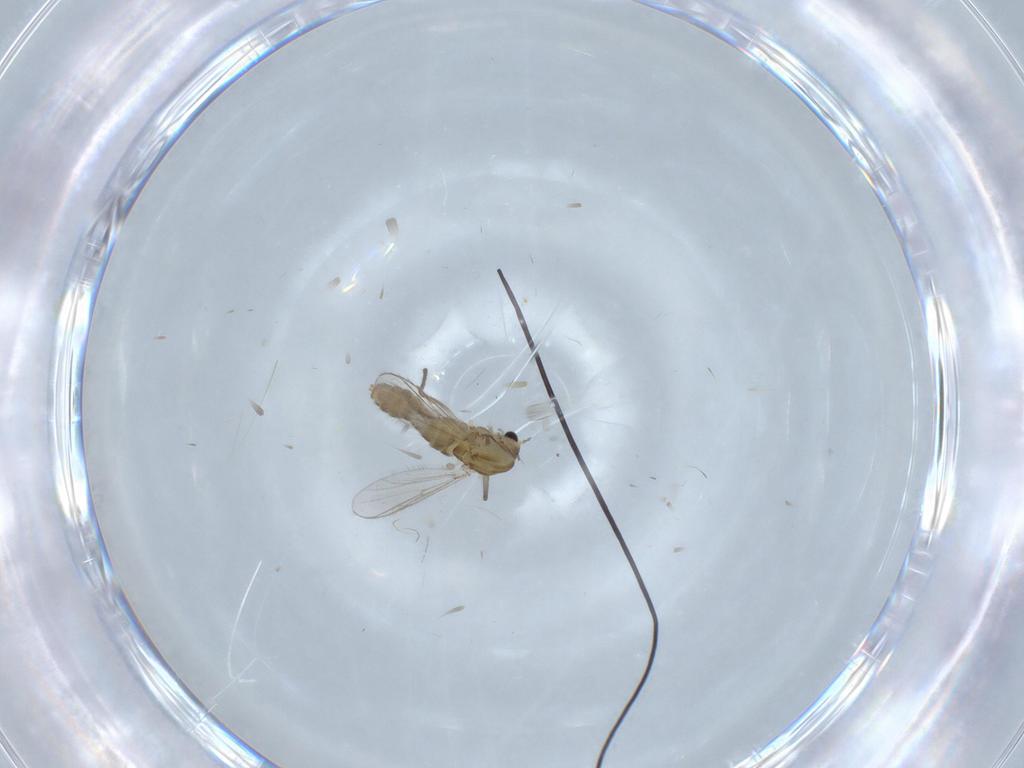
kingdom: Animalia
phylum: Arthropoda
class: Insecta
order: Diptera
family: Chironomidae
